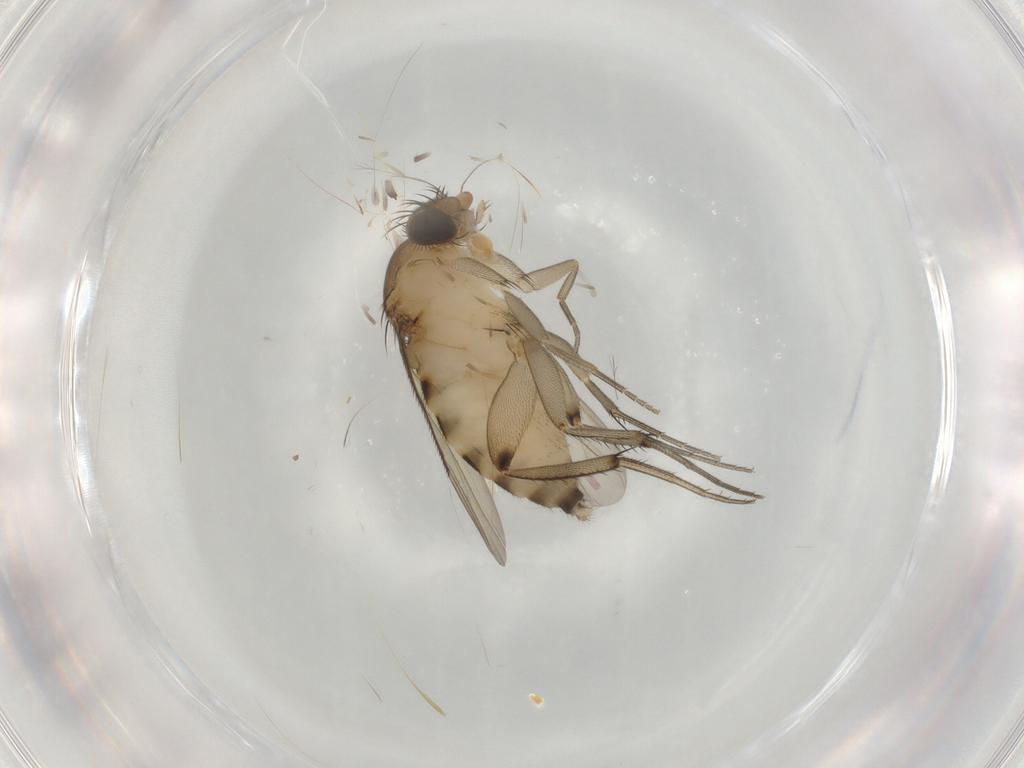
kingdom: Animalia
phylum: Arthropoda
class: Insecta
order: Diptera
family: Phoridae
